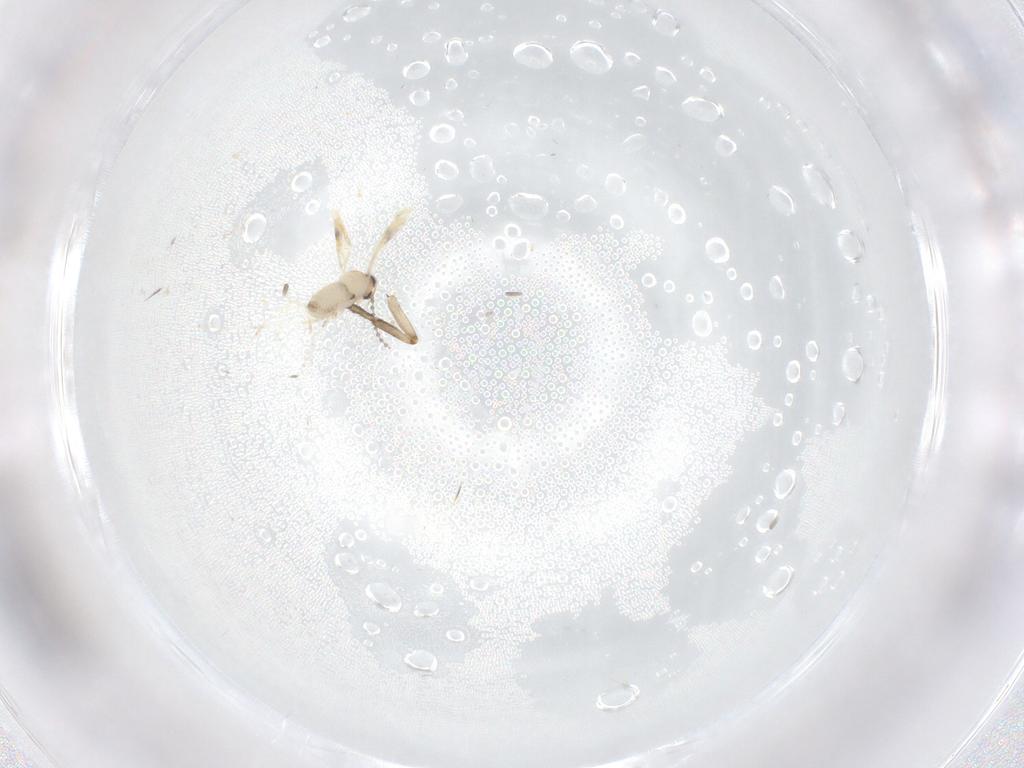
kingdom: Animalia
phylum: Arthropoda
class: Insecta
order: Diptera
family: Cecidomyiidae
